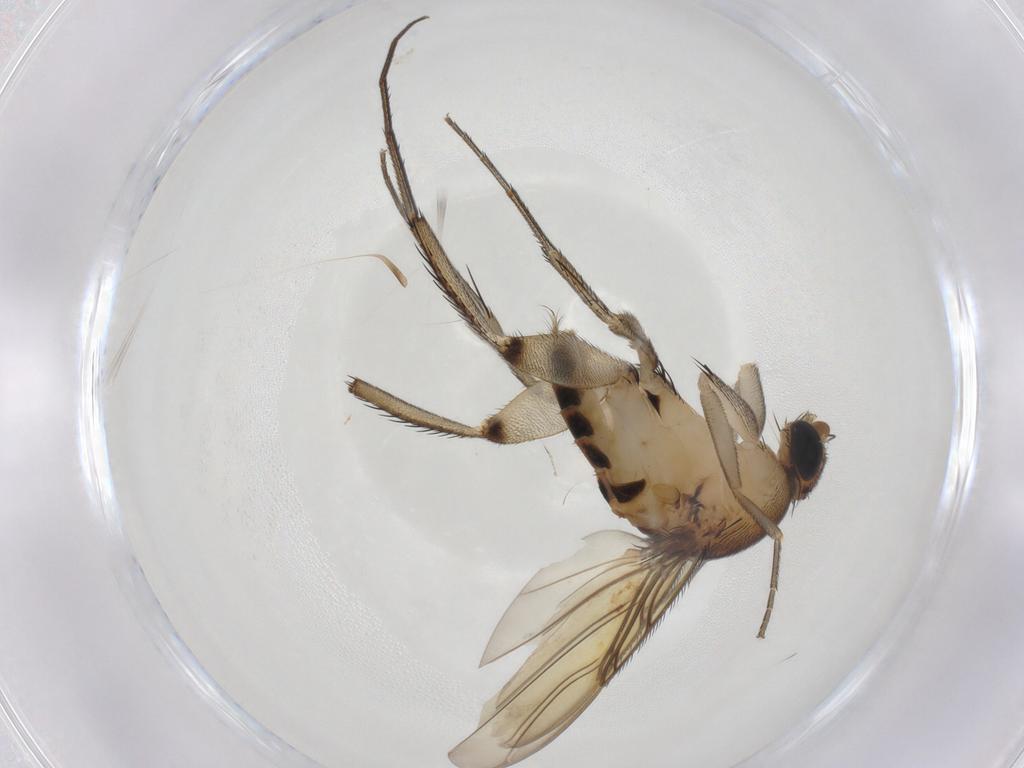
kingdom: Animalia
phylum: Arthropoda
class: Insecta
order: Diptera
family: Phoridae
